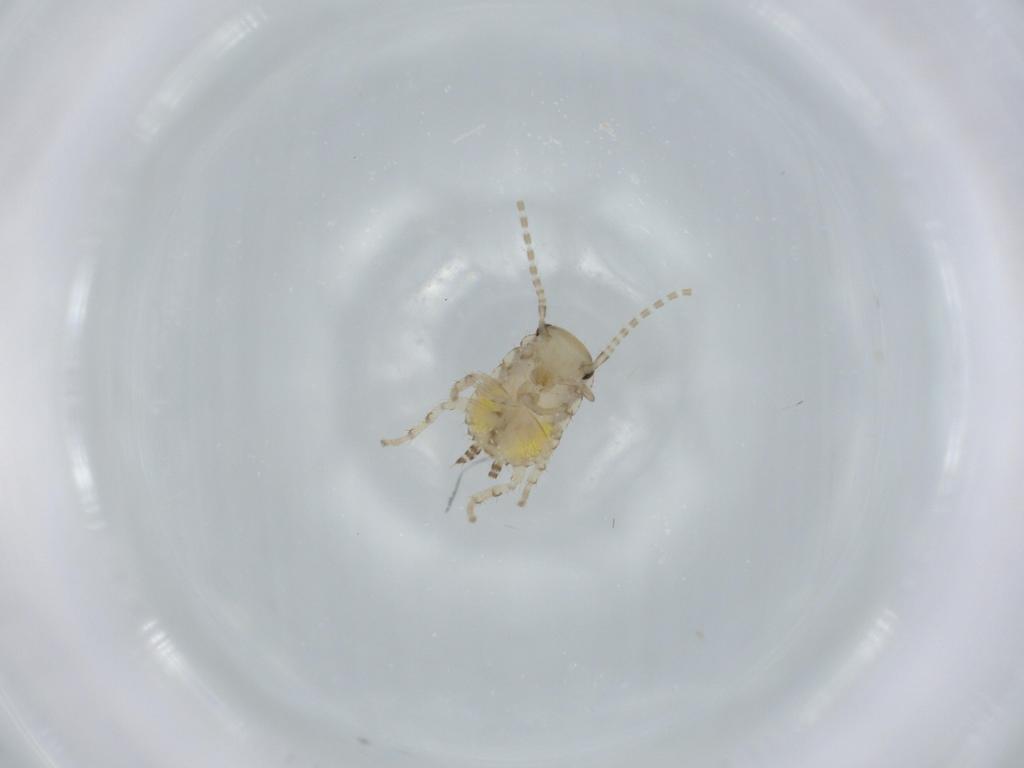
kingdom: Animalia
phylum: Arthropoda
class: Insecta
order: Blattodea
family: Ectobiidae
